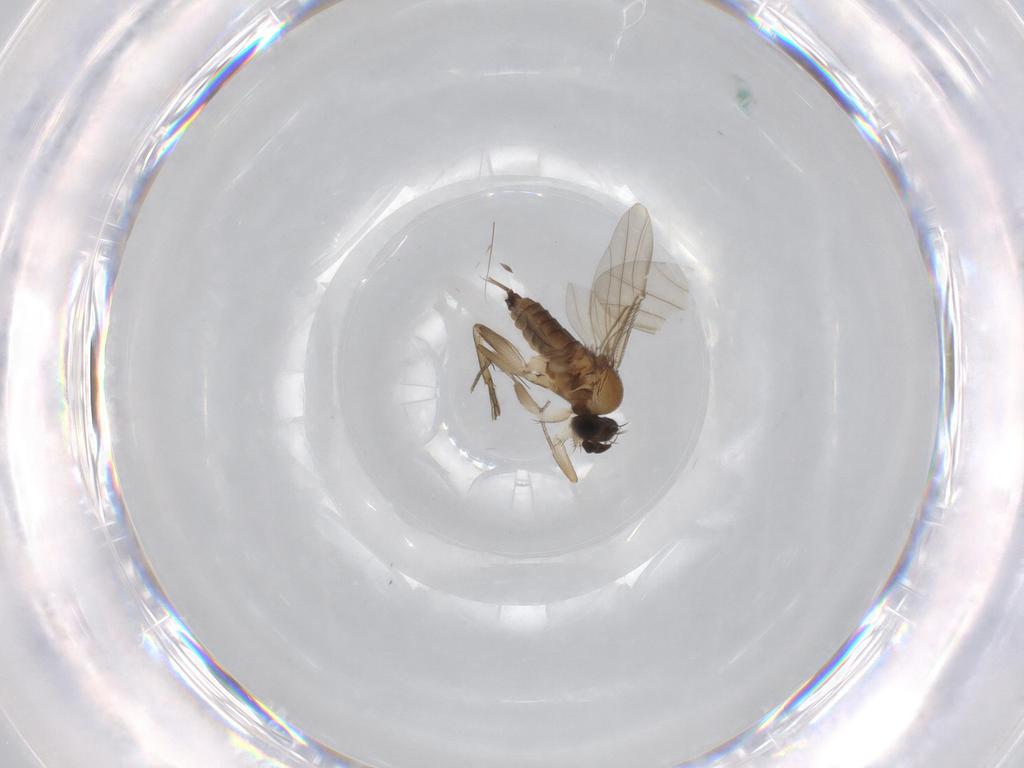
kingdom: Animalia
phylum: Arthropoda
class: Insecta
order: Diptera
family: Phoridae
